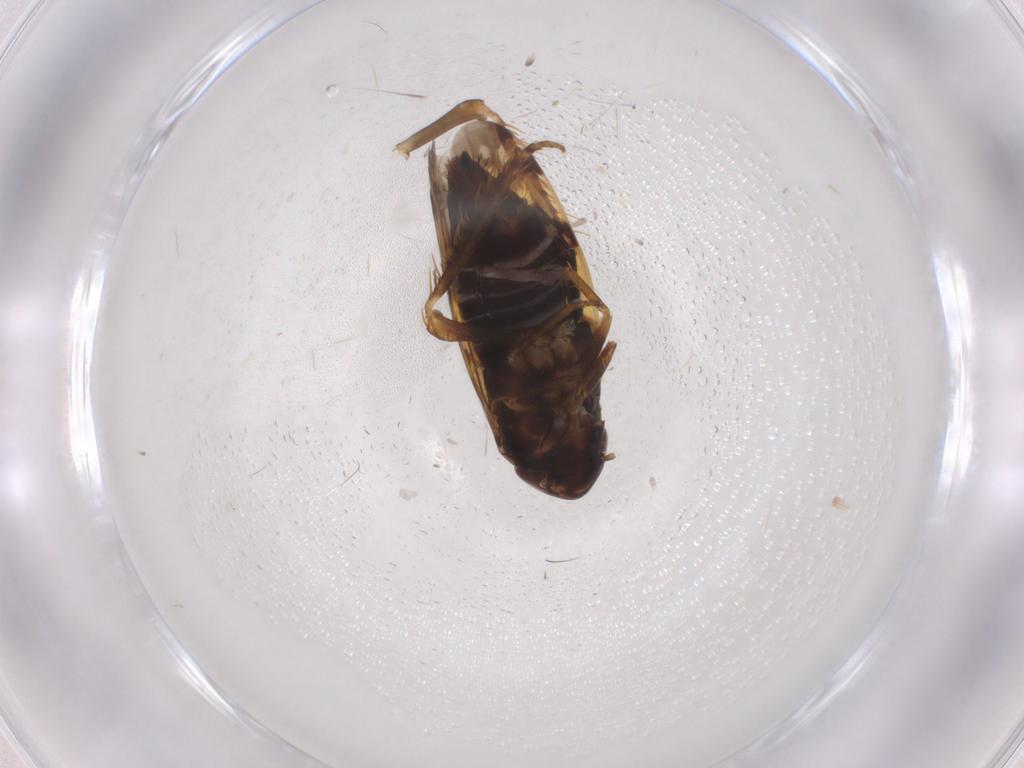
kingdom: Animalia
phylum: Arthropoda
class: Insecta
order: Hemiptera
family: Cicadellidae
